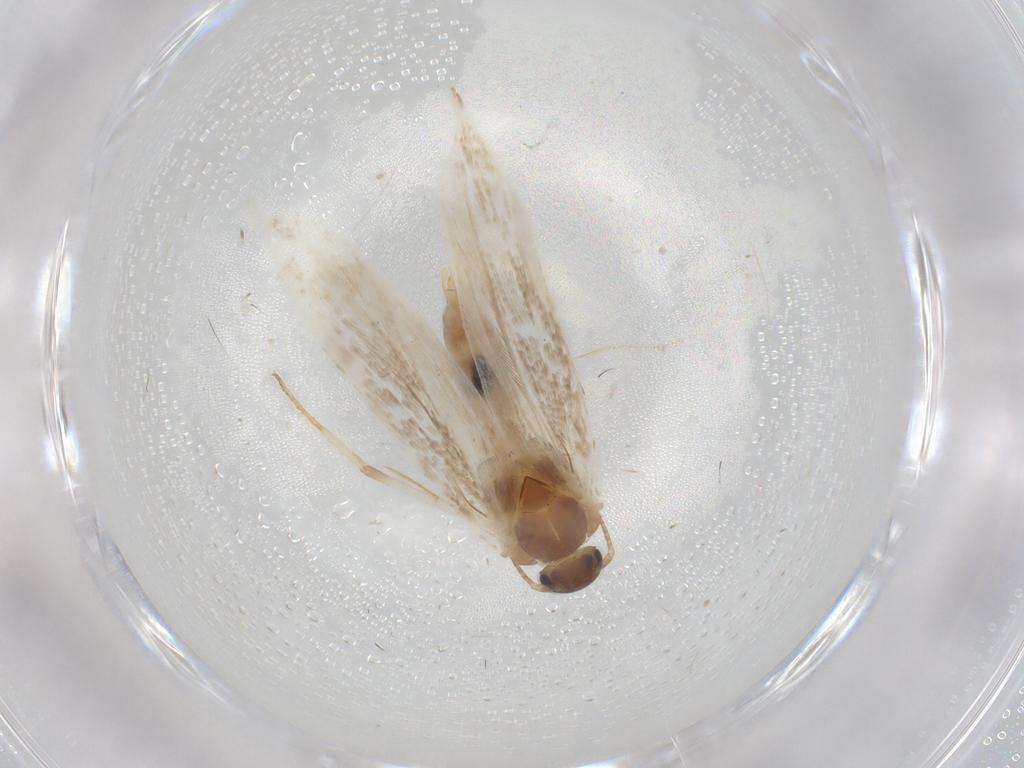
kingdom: Animalia
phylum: Arthropoda
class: Insecta
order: Lepidoptera
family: Gelechiidae
